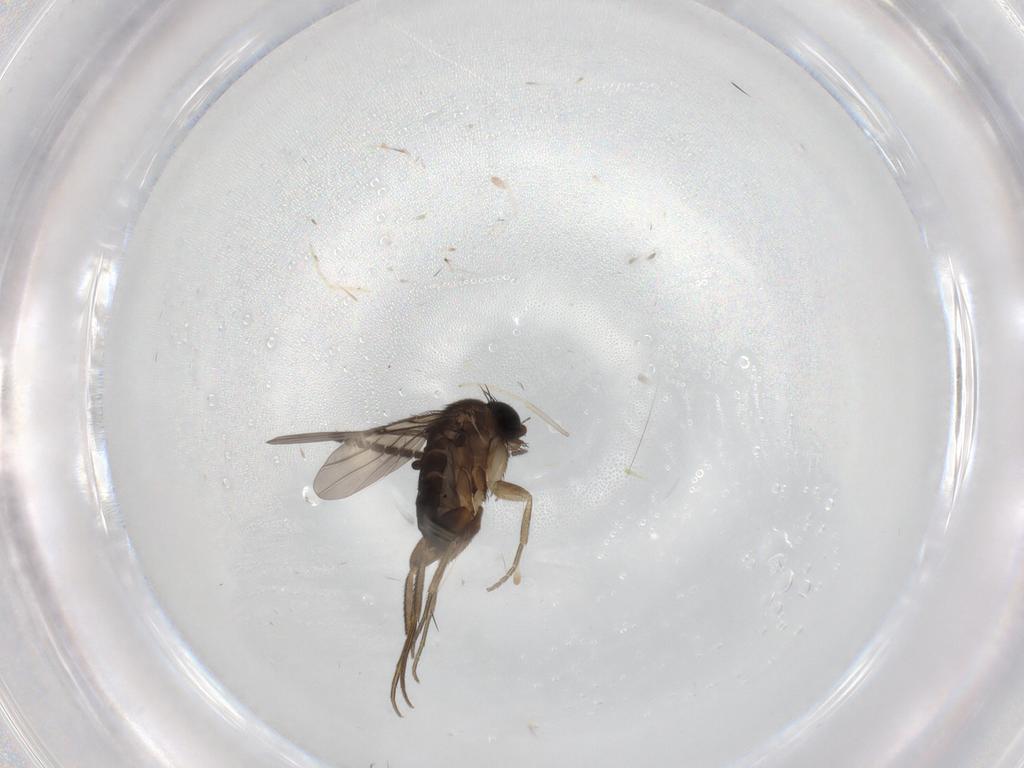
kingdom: Animalia
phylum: Arthropoda
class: Insecta
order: Diptera
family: Phoridae
